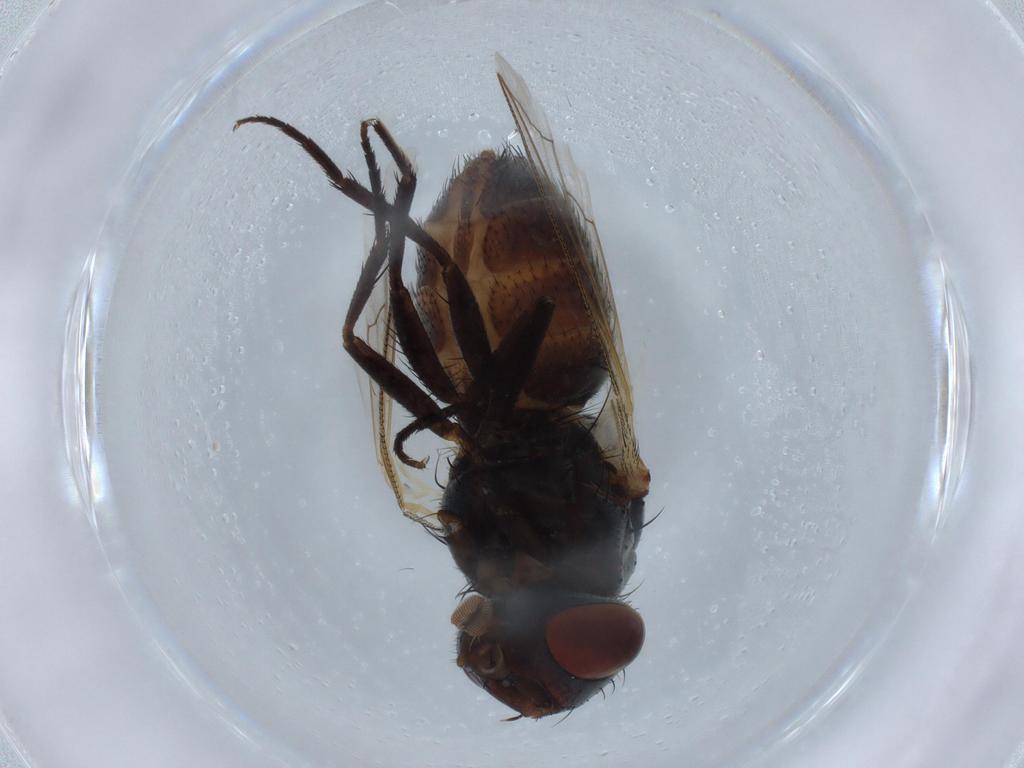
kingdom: Animalia
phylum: Arthropoda
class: Insecta
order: Diptera
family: Sarcophagidae
